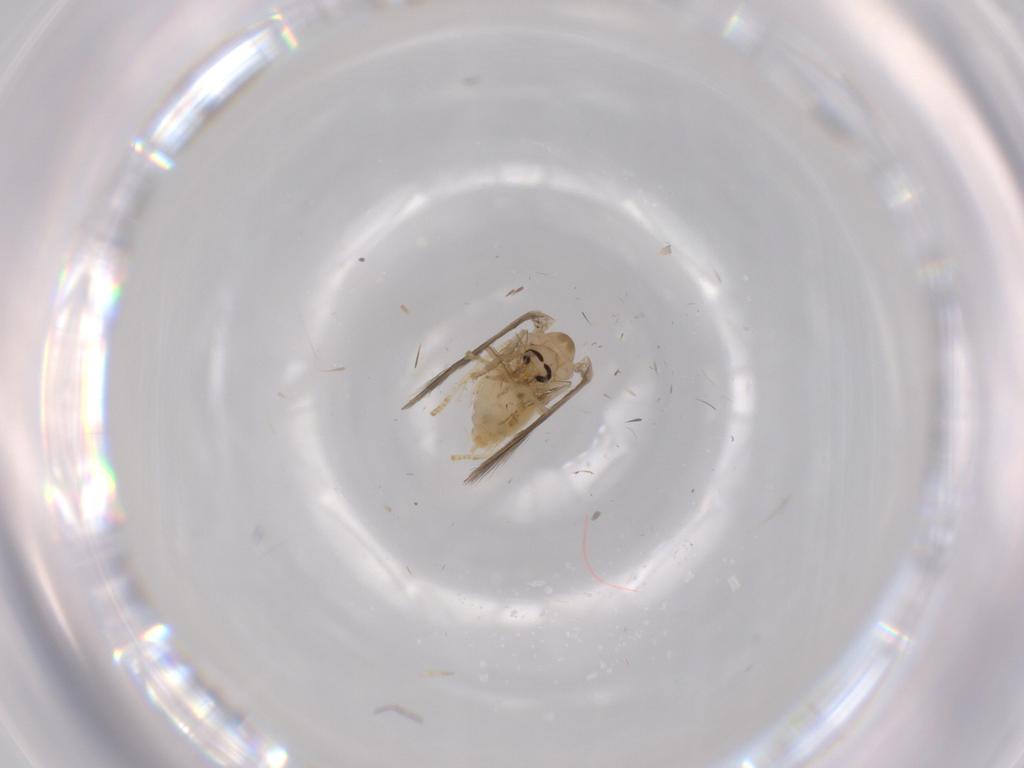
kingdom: Animalia
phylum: Arthropoda
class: Insecta
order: Diptera
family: Psychodidae
